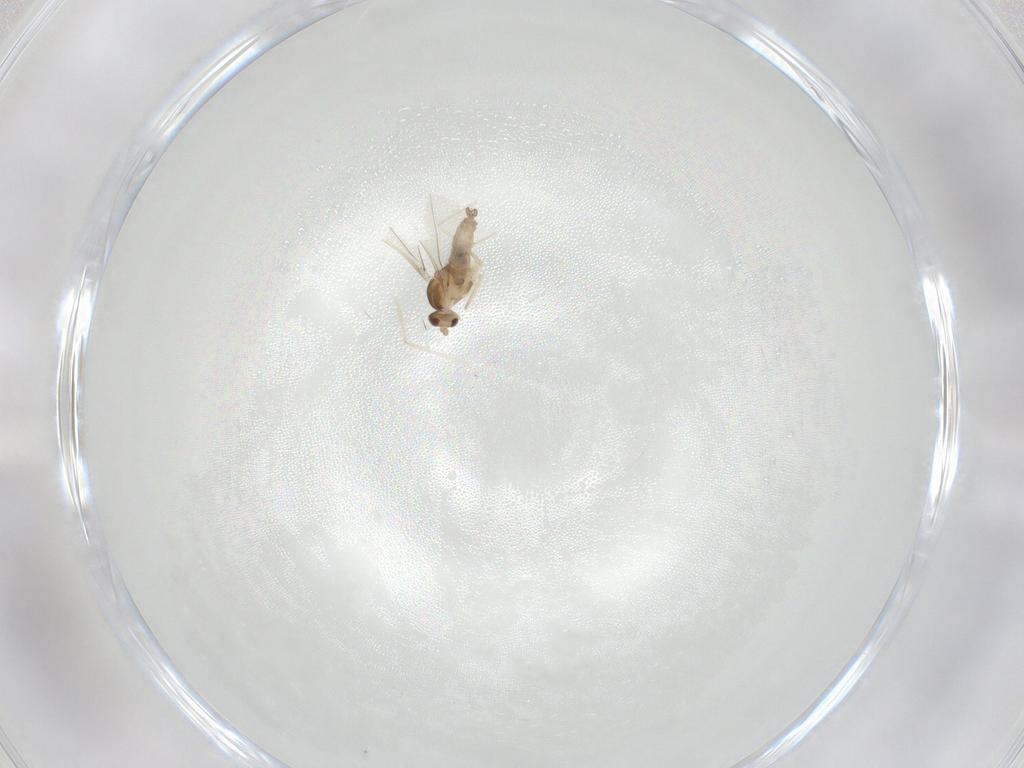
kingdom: Animalia
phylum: Arthropoda
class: Insecta
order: Diptera
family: Cecidomyiidae
